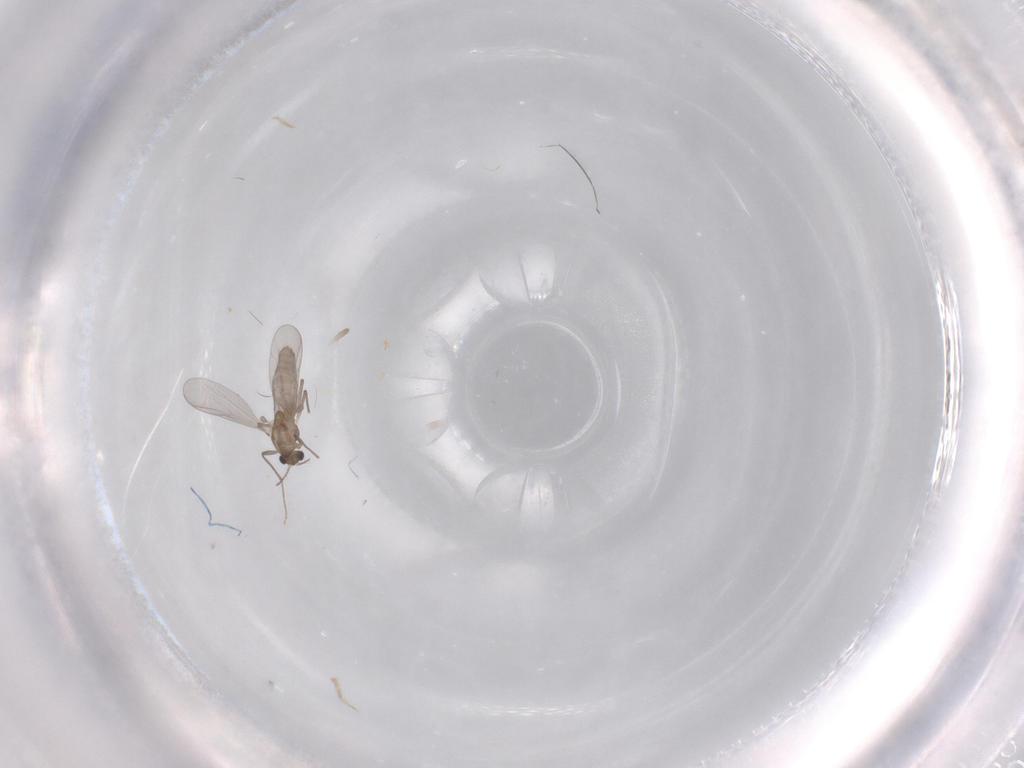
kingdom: Animalia
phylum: Arthropoda
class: Insecta
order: Diptera
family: Phoridae
